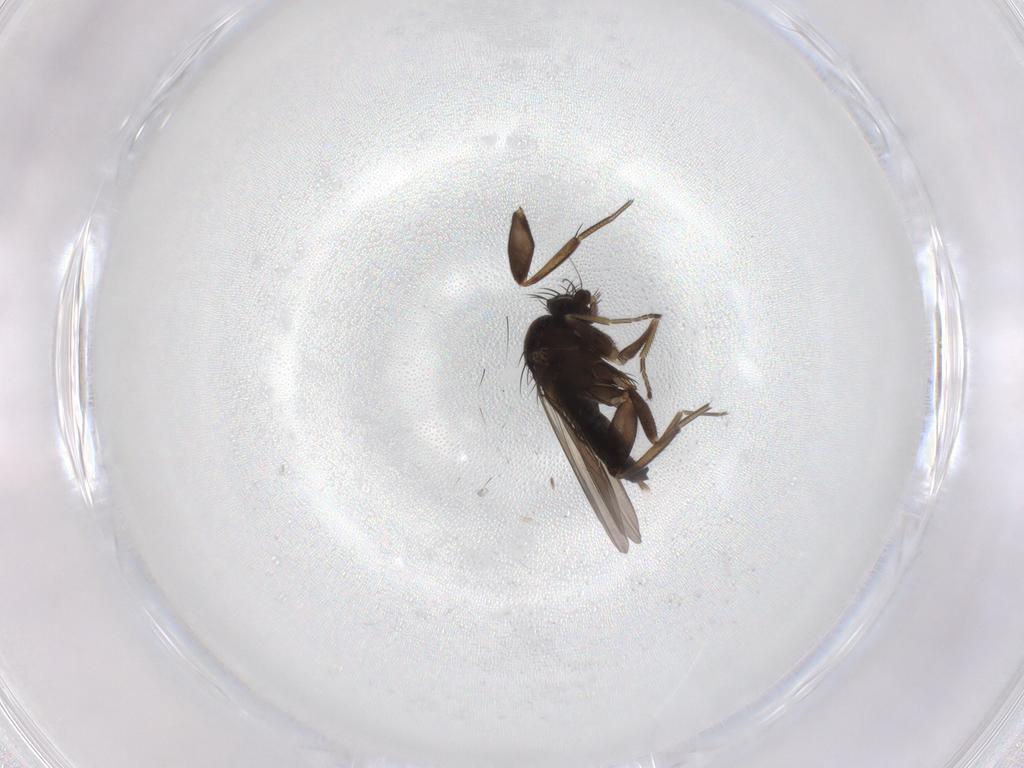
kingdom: Animalia
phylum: Arthropoda
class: Insecta
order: Diptera
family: Phoridae
